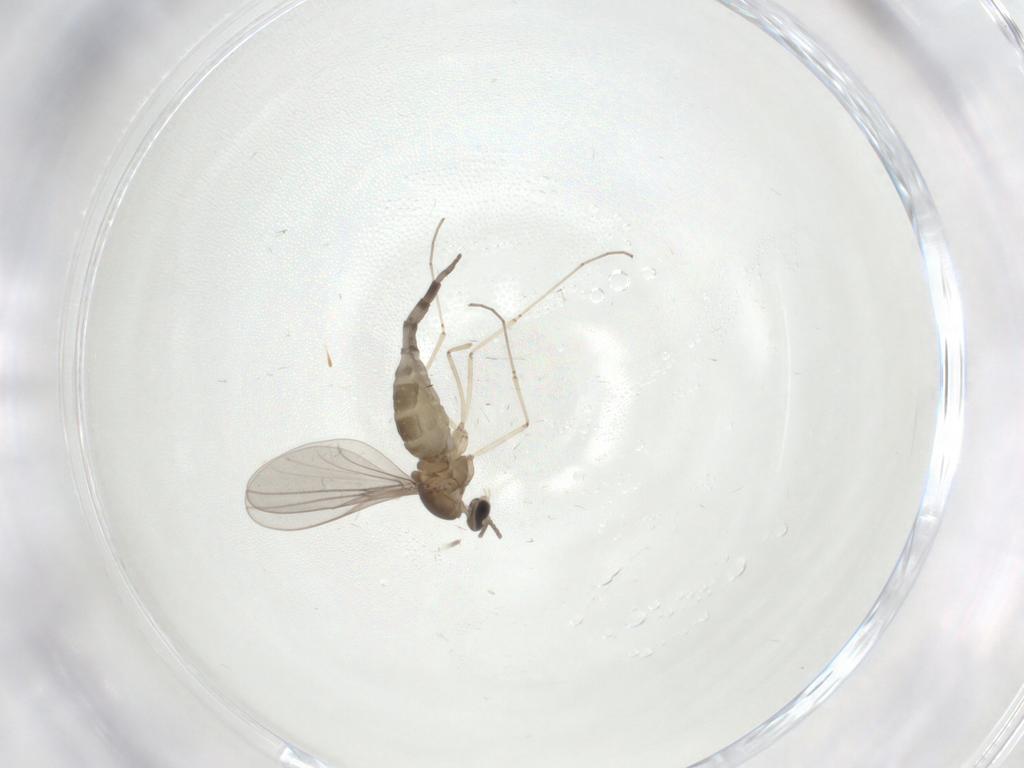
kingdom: Animalia
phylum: Arthropoda
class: Insecta
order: Diptera
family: Cecidomyiidae
